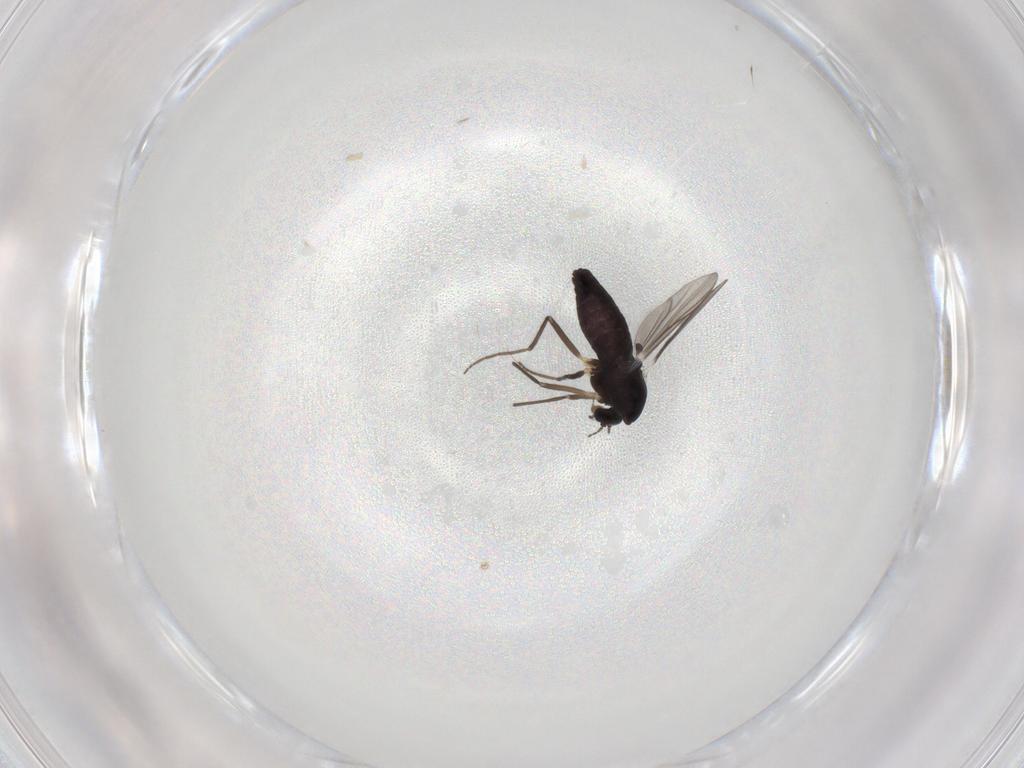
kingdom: Animalia
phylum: Arthropoda
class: Insecta
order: Diptera
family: Chironomidae
